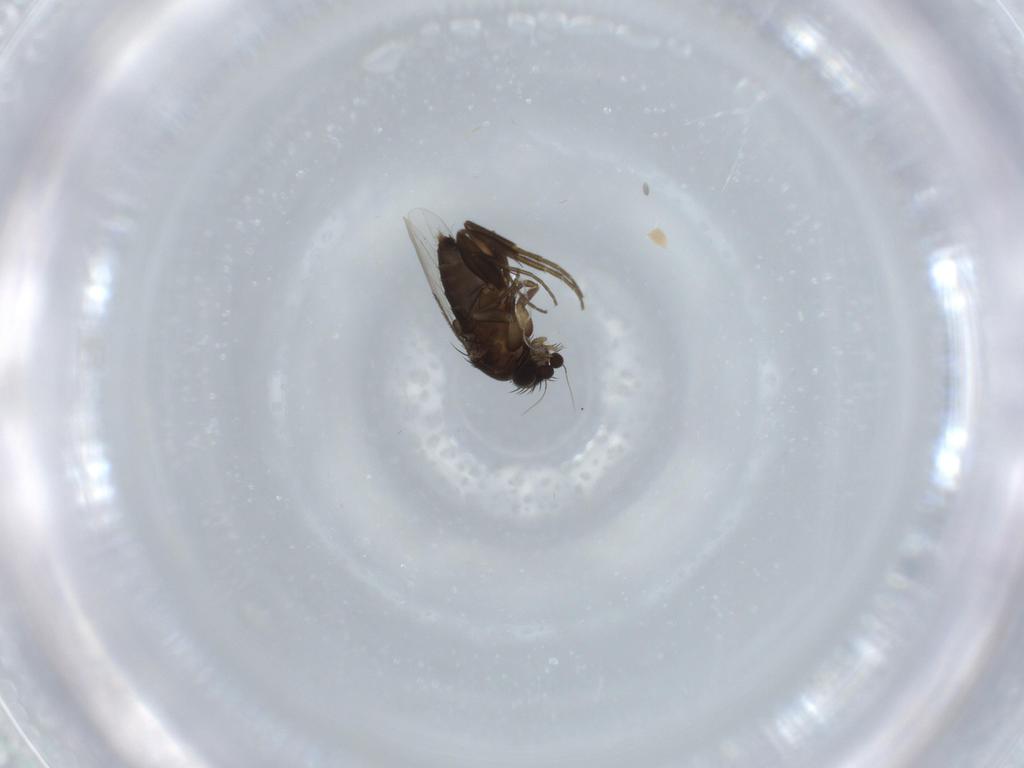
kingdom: Animalia
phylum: Arthropoda
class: Insecta
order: Diptera
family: Phoridae
